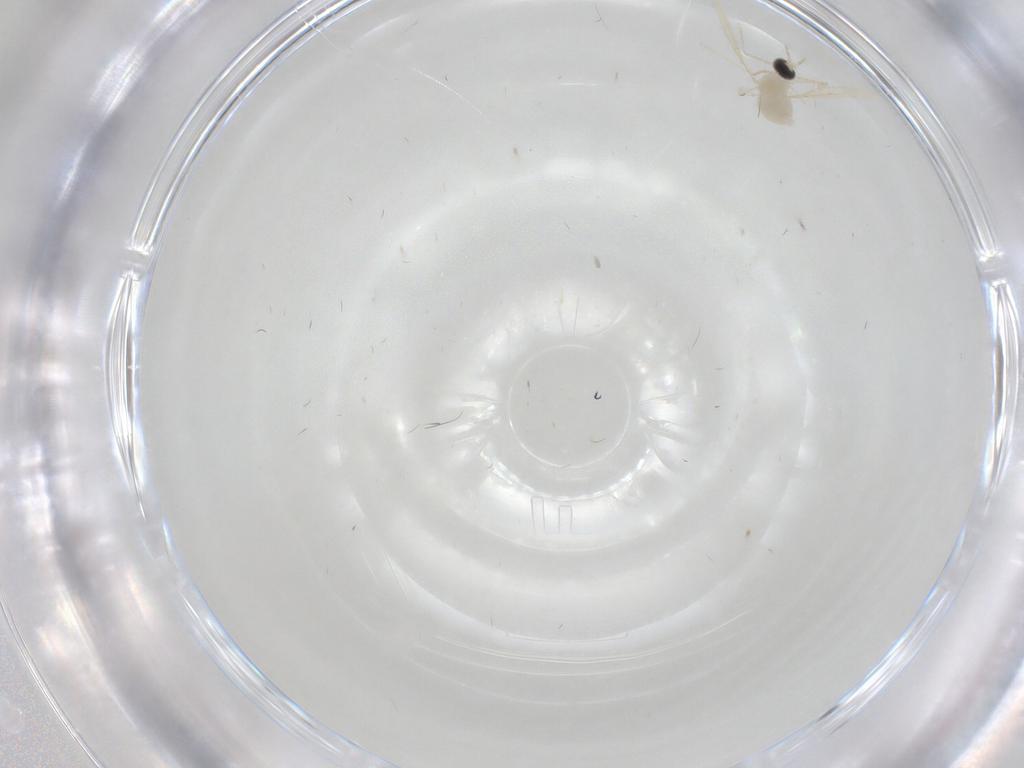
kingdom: Animalia
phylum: Arthropoda
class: Insecta
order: Diptera
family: Cecidomyiidae
